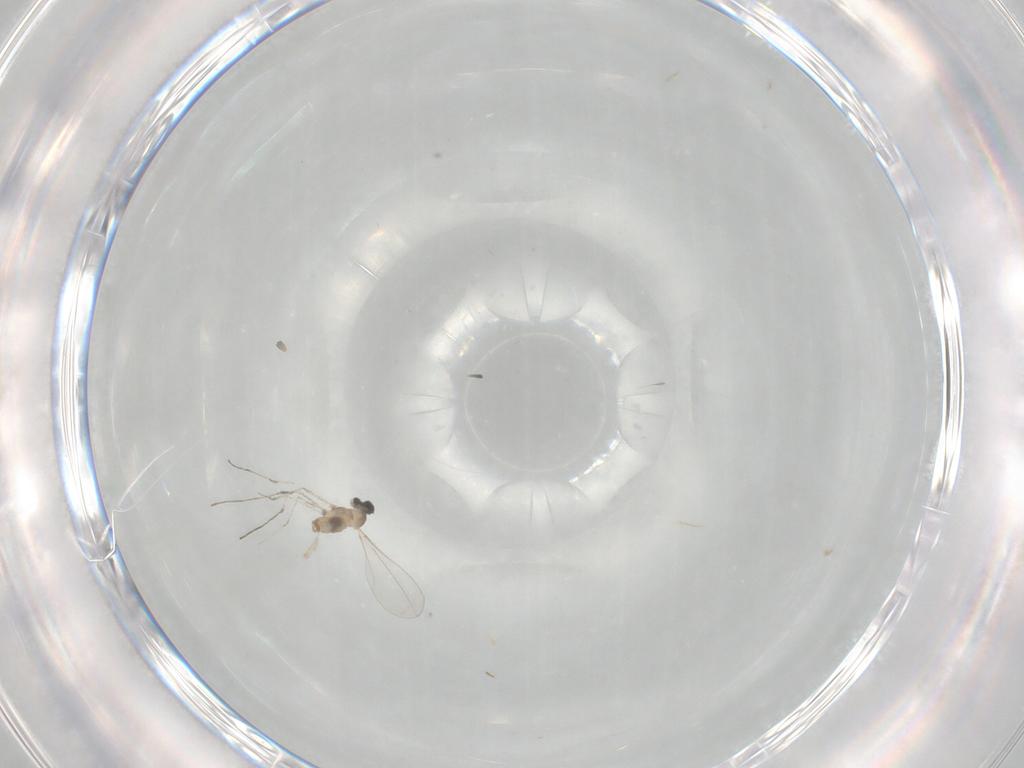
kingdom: Animalia
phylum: Arthropoda
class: Insecta
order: Diptera
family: Cecidomyiidae
